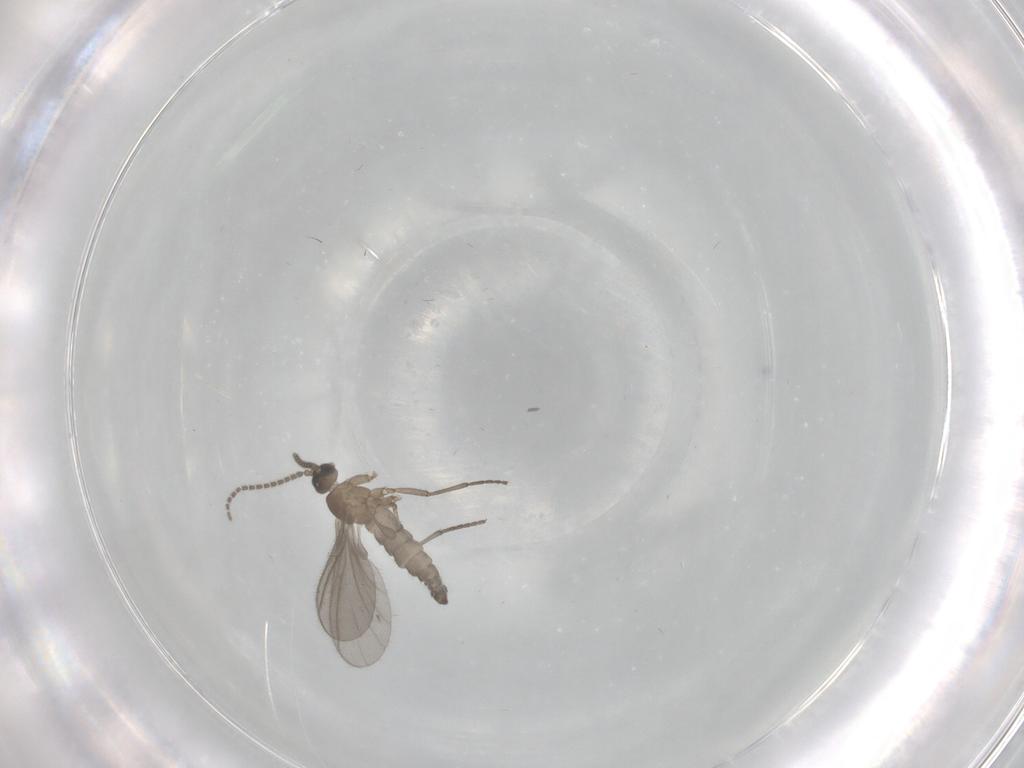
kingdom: Animalia
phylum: Arthropoda
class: Insecta
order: Diptera
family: Sciaridae
